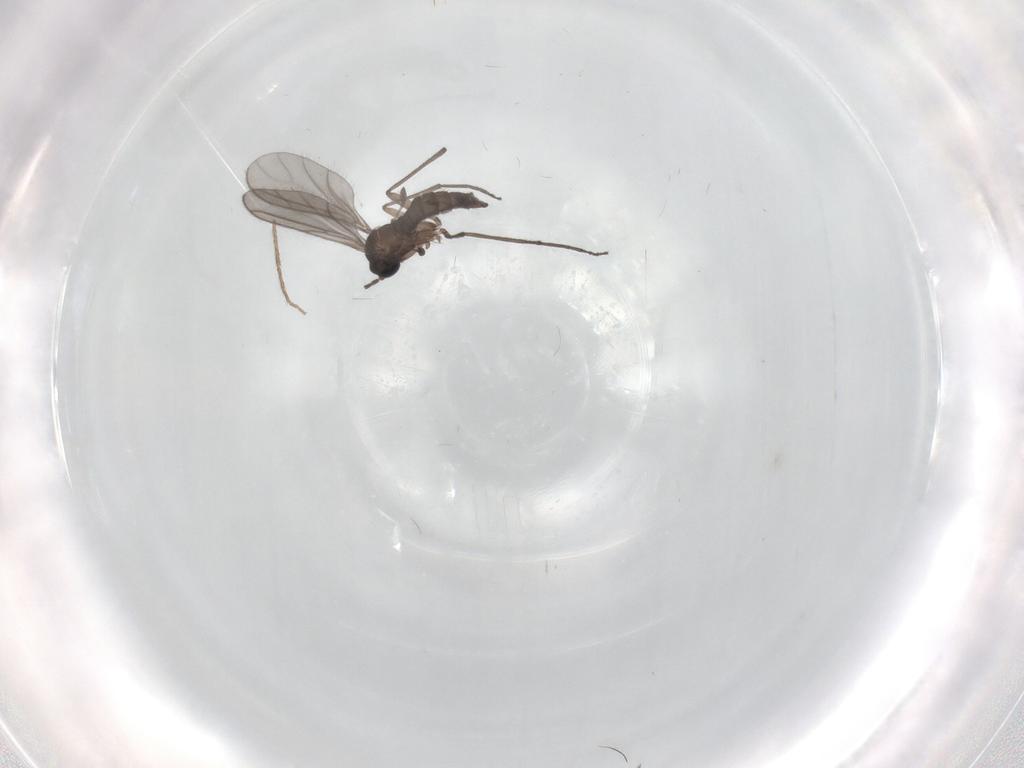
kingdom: Animalia
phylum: Arthropoda
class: Insecta
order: Diptera
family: Sciaridae
